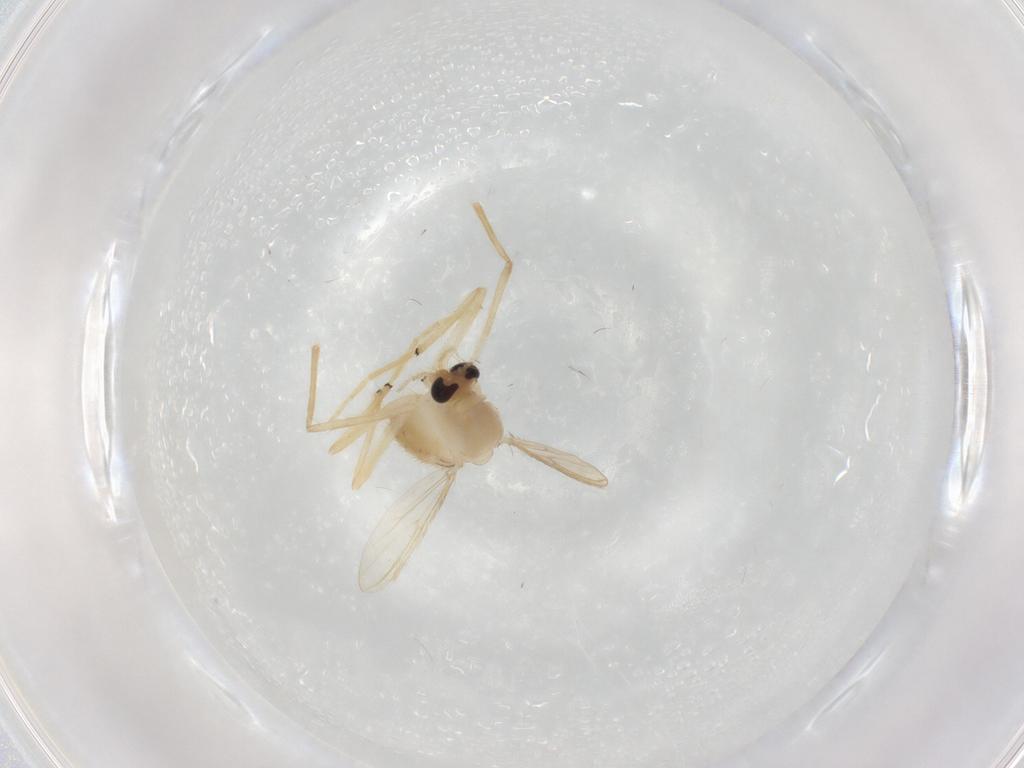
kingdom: Animalia
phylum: Arthropoda
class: Insecta
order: Diptera
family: Chironomidae
